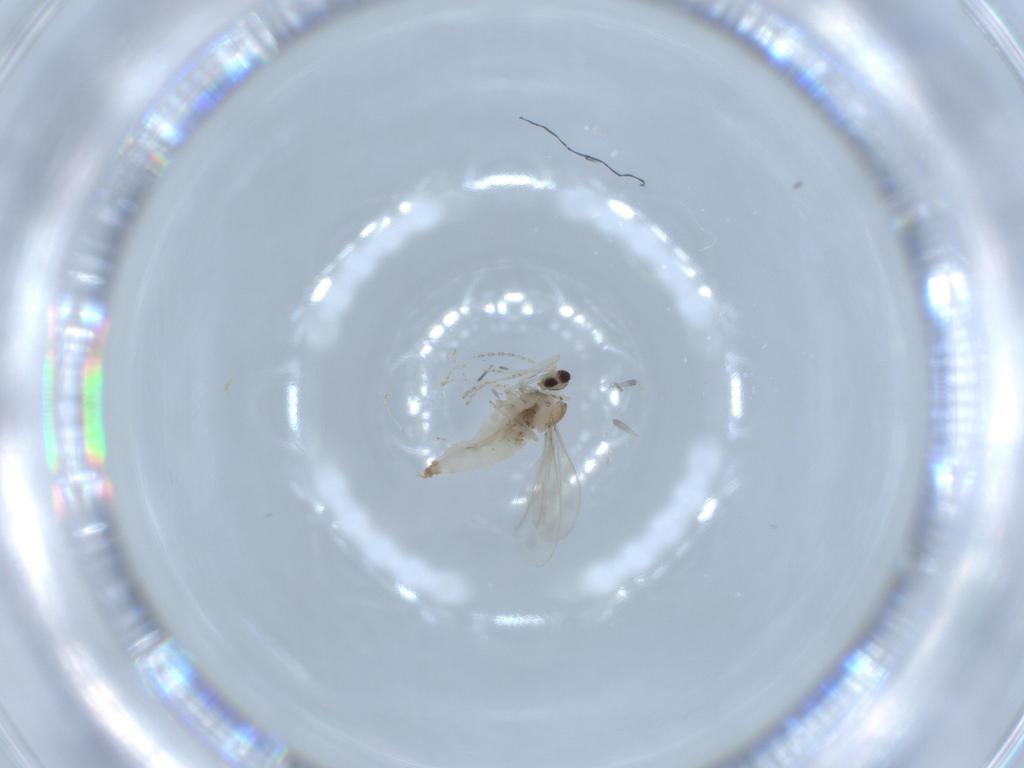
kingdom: Animalia
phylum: Arthropoda
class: Insecta
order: Diptera
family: Cecidomyiidae
